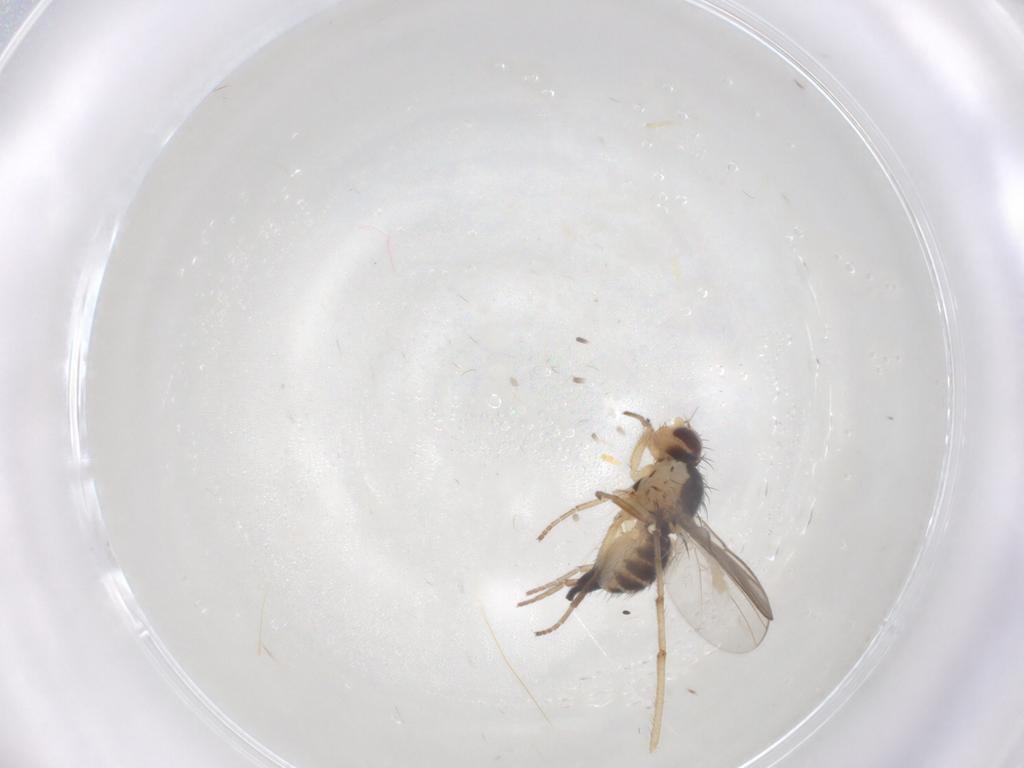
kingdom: Animalia
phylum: Arthropoda
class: Insecta
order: Diptera
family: Agromyzidae
